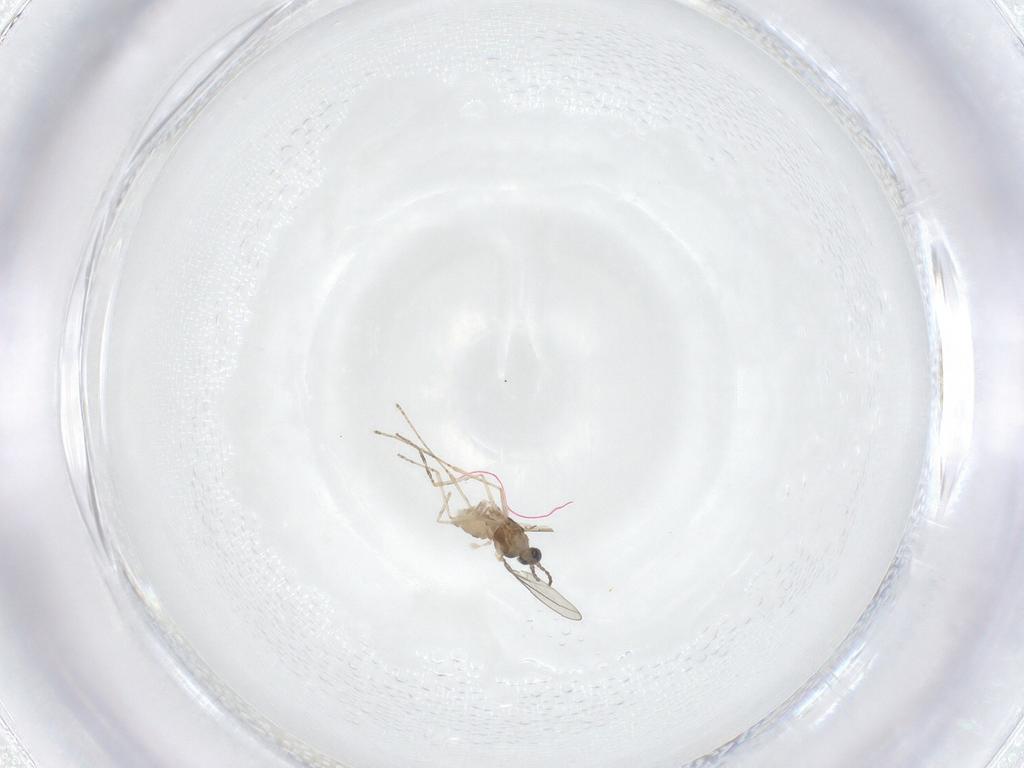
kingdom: Animalia
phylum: Arthropoda
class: Insecta
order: Diptera
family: Cecidomyiidae
